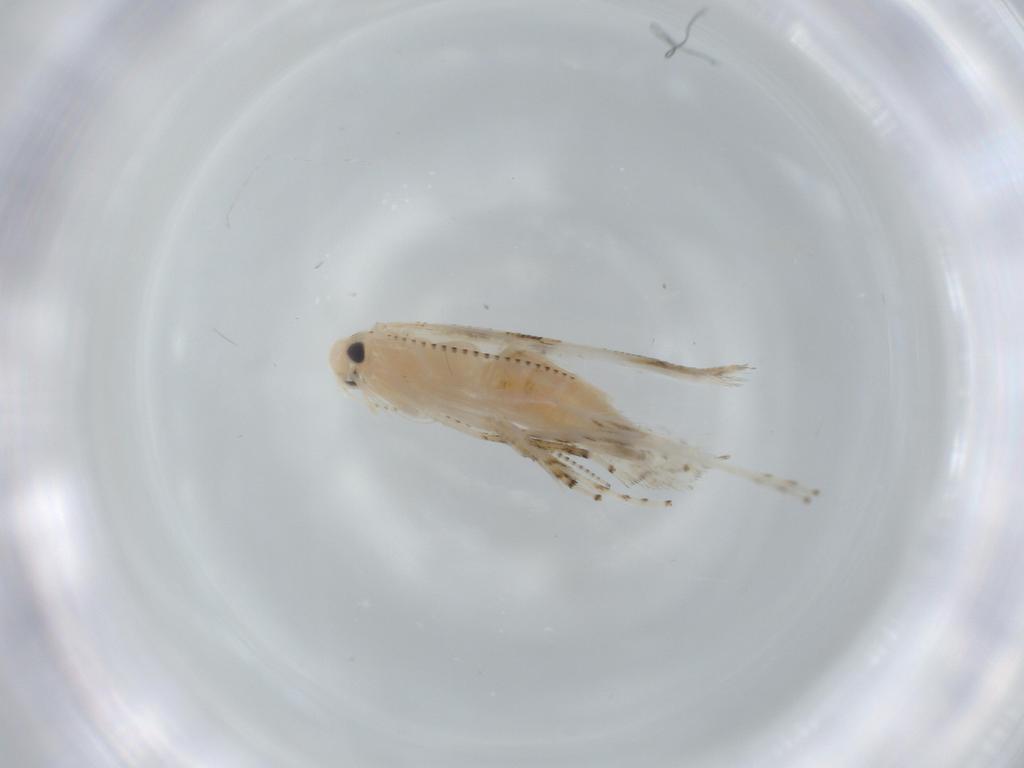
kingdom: Animalia
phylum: Arthropoda
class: Insecta
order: Lepidoptera
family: Gracillariidae
